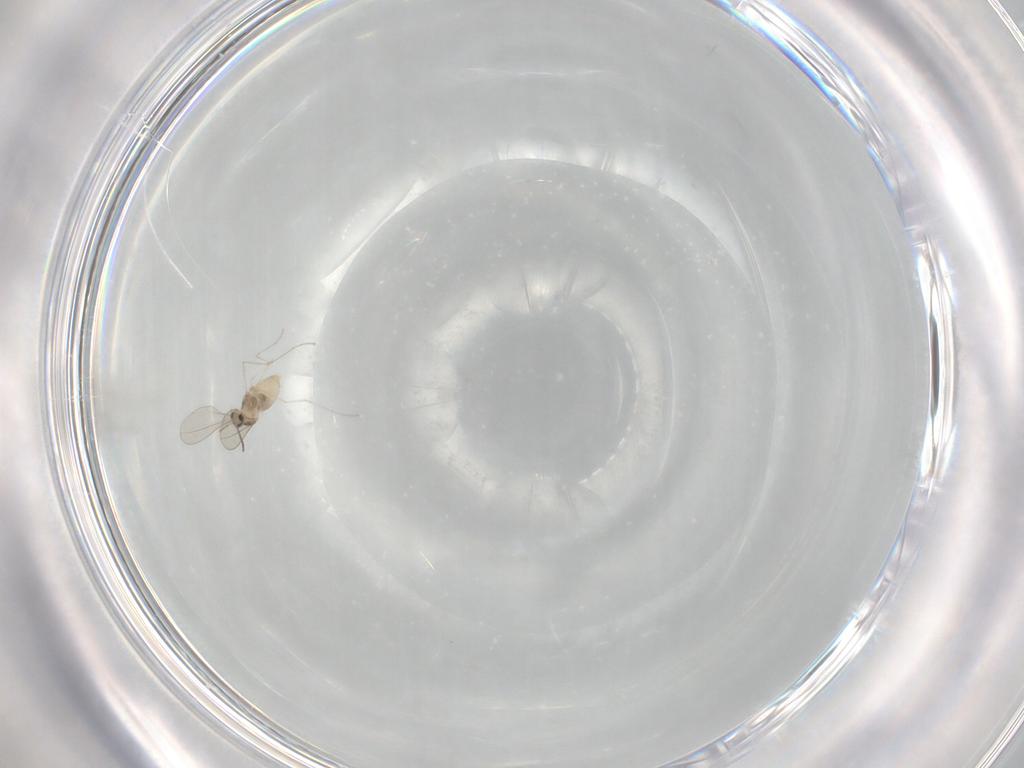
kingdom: Animalia
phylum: Arthropoda
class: Insecta
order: Diptera
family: Cecidomyiidae
